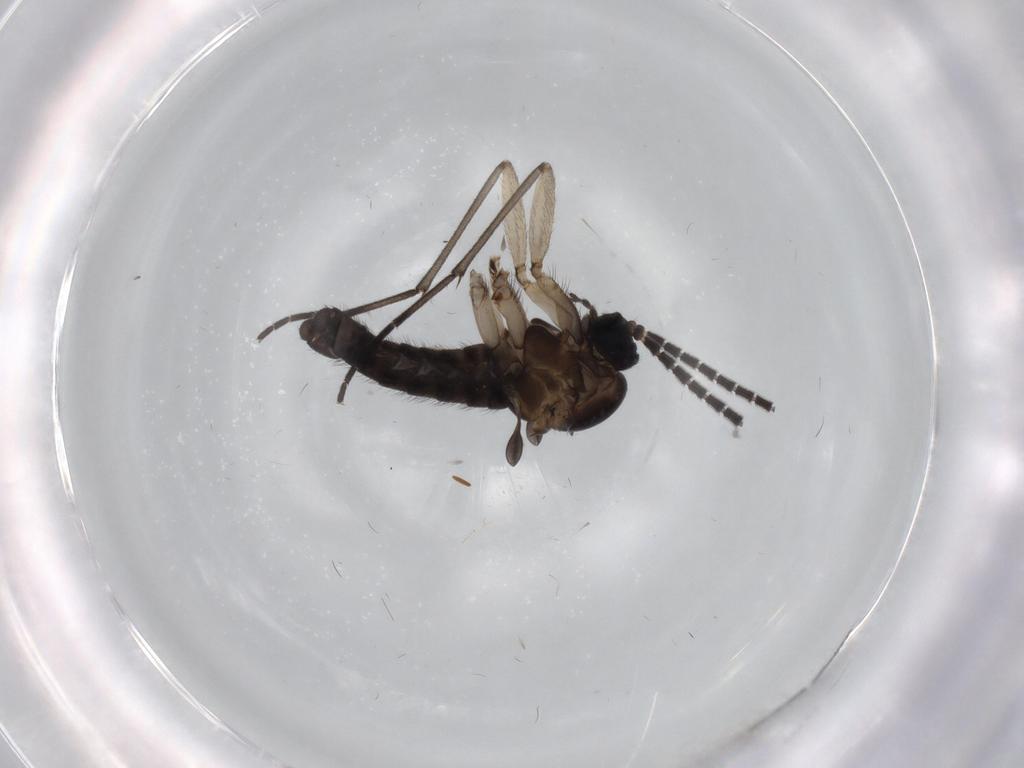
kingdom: Animalia
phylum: Arthropoda
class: Insecta
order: Diptera
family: Sciaridae
